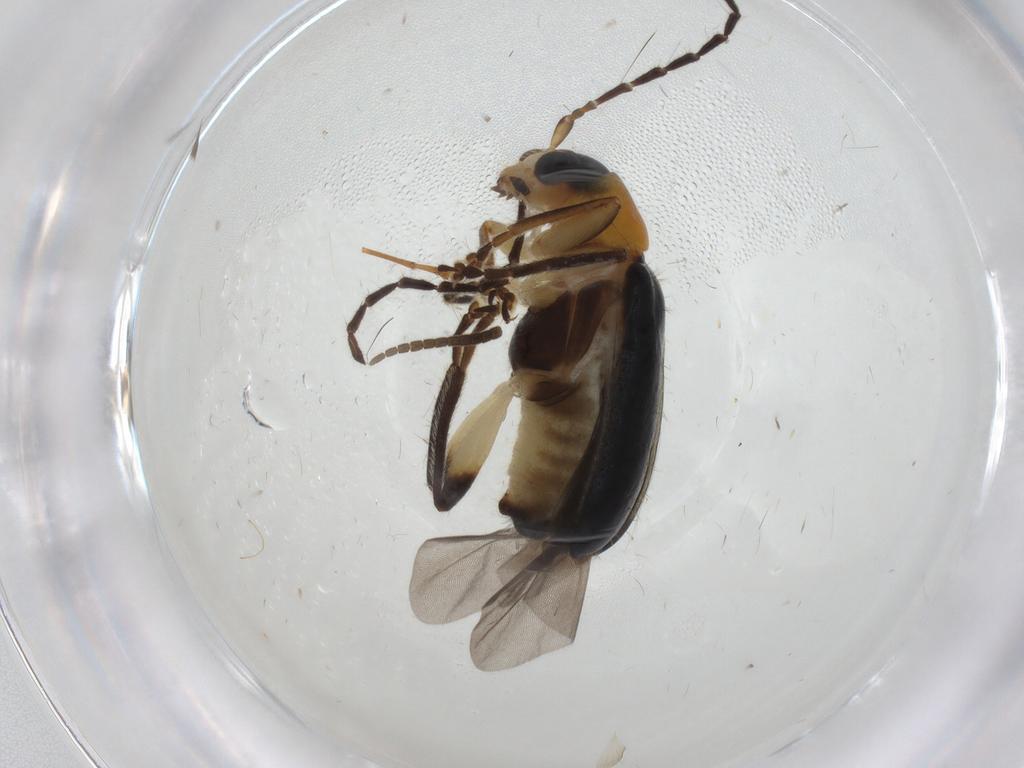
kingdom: Animalia
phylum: Arthropoda
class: Insecta
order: Coleoptera
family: Chrysomelidae
